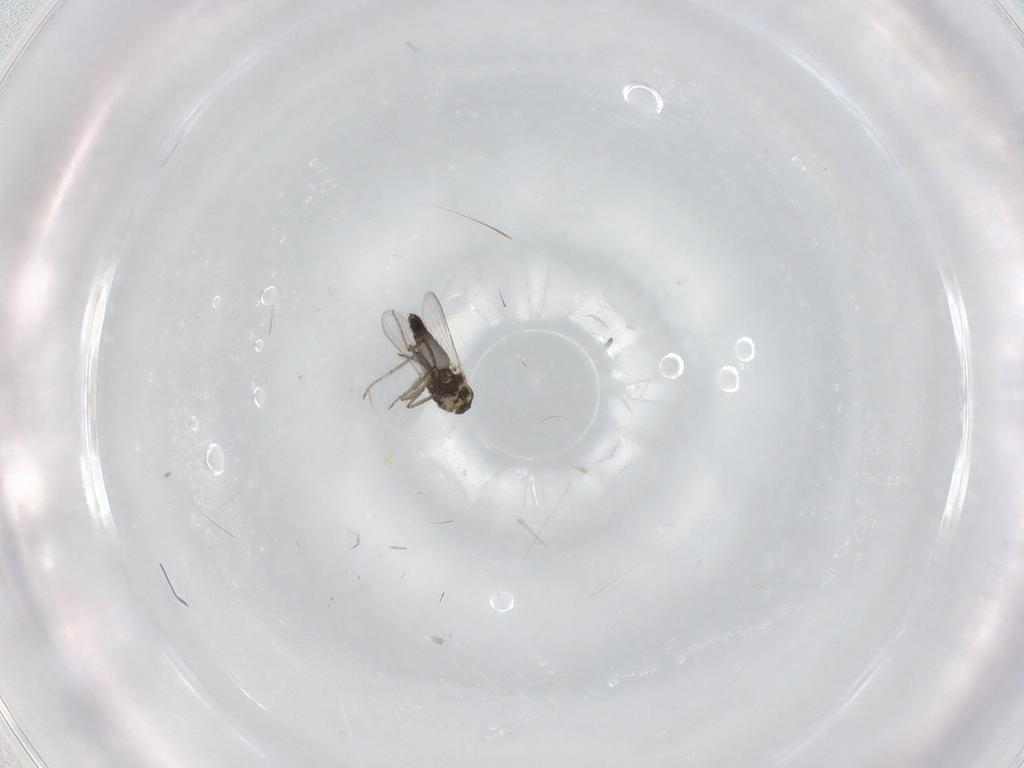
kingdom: Animalia
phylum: Arthropoda
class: Insecta
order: Diptera
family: Ceratopogonidae
